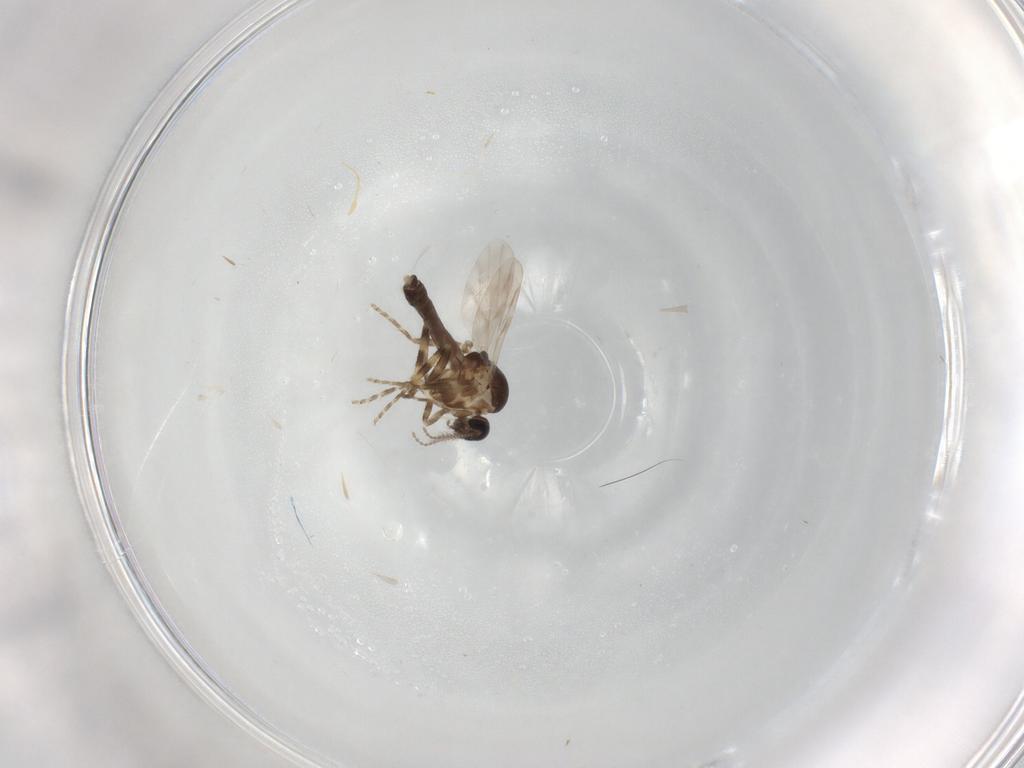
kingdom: Animalia
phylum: Arthropoda
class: Insecta
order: Diptera
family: Ceratopogonidae
